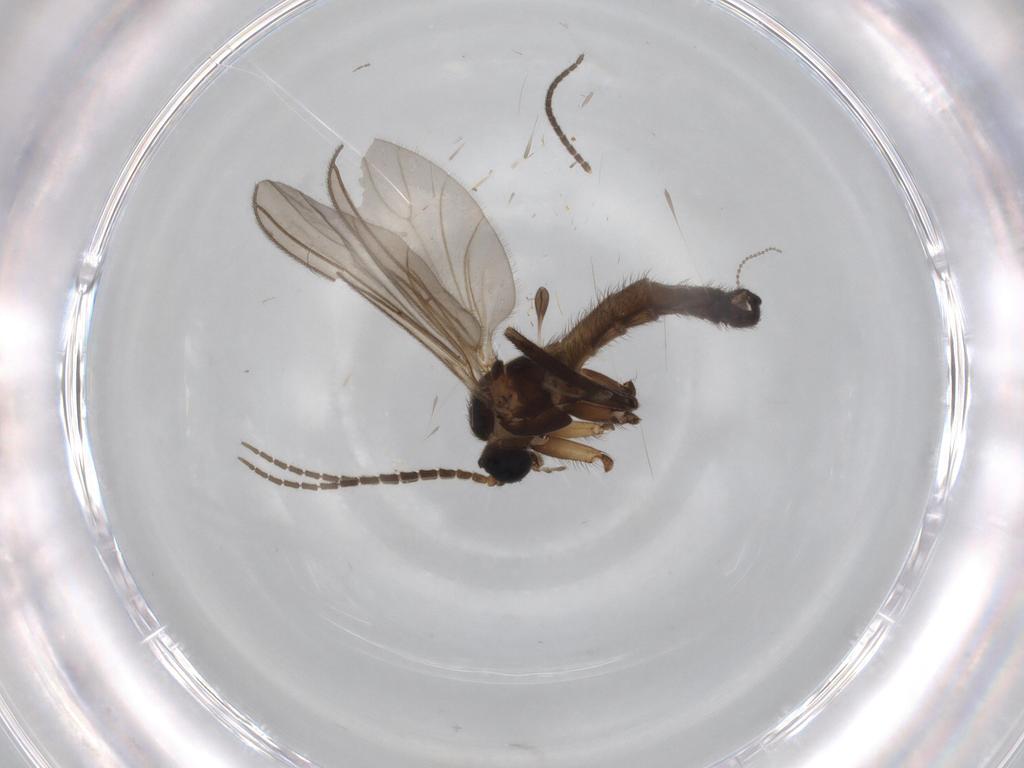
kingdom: Animalia
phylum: Arthropoda
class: Insecta
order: Diptera
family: Sciaridae
